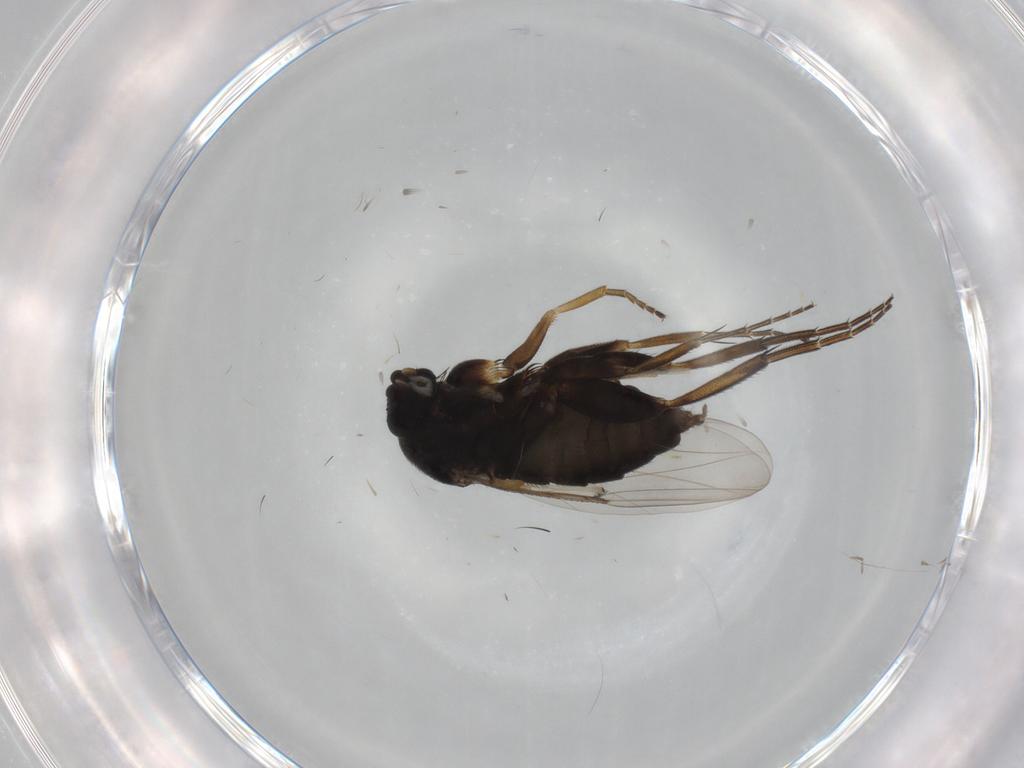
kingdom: Animalia
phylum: Arthropoda
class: Insecta
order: Diptera
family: Phoridae
